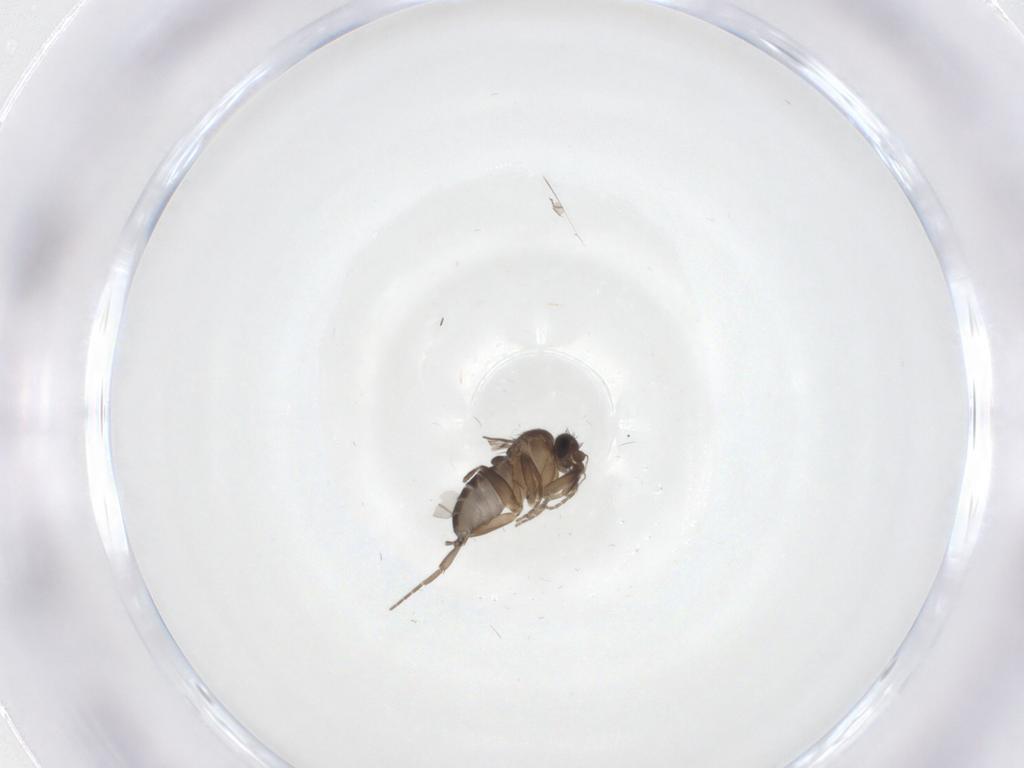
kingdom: Animalia
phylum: Arthropoda
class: Insecta
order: Diptera
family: Phoridae
